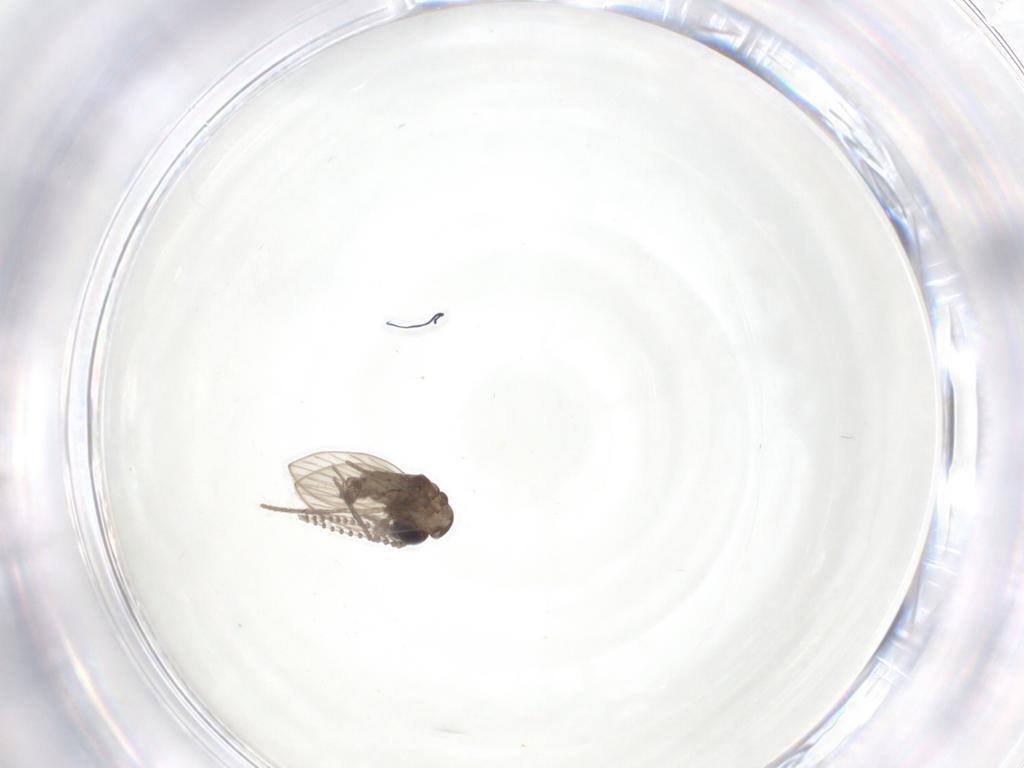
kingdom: Animalia
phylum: Arthropoda
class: Insecta
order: Diptera
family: Psychodidae
